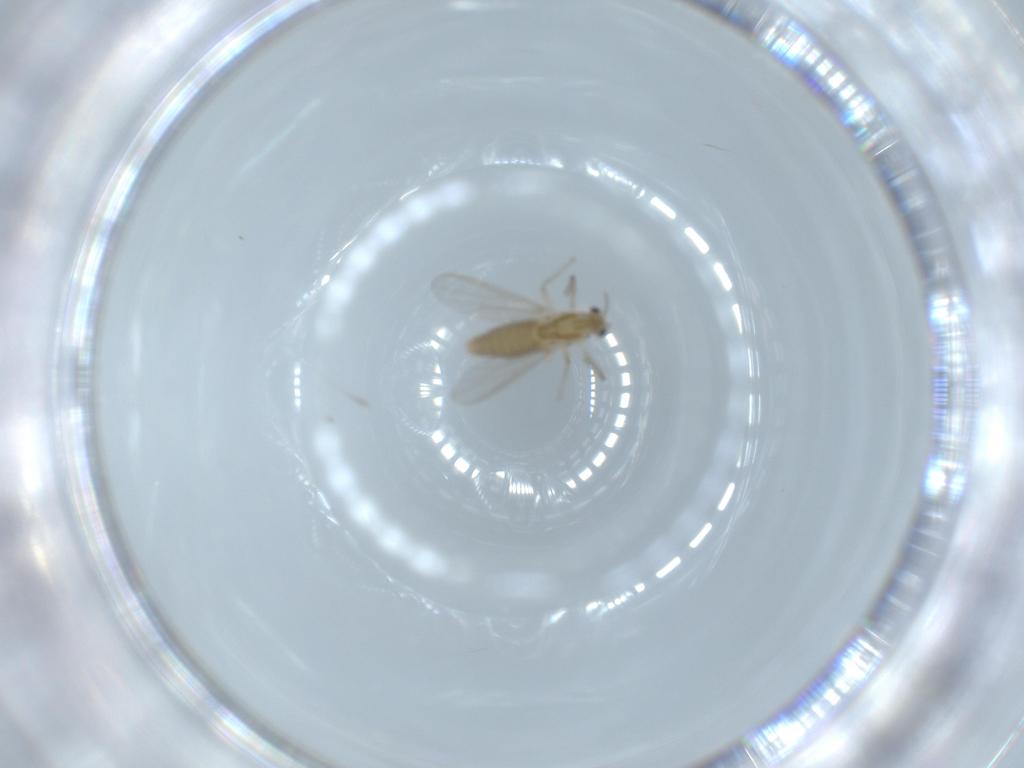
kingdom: Animalia
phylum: Arthropoda
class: Insecta
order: Diptera
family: Chironomidae
